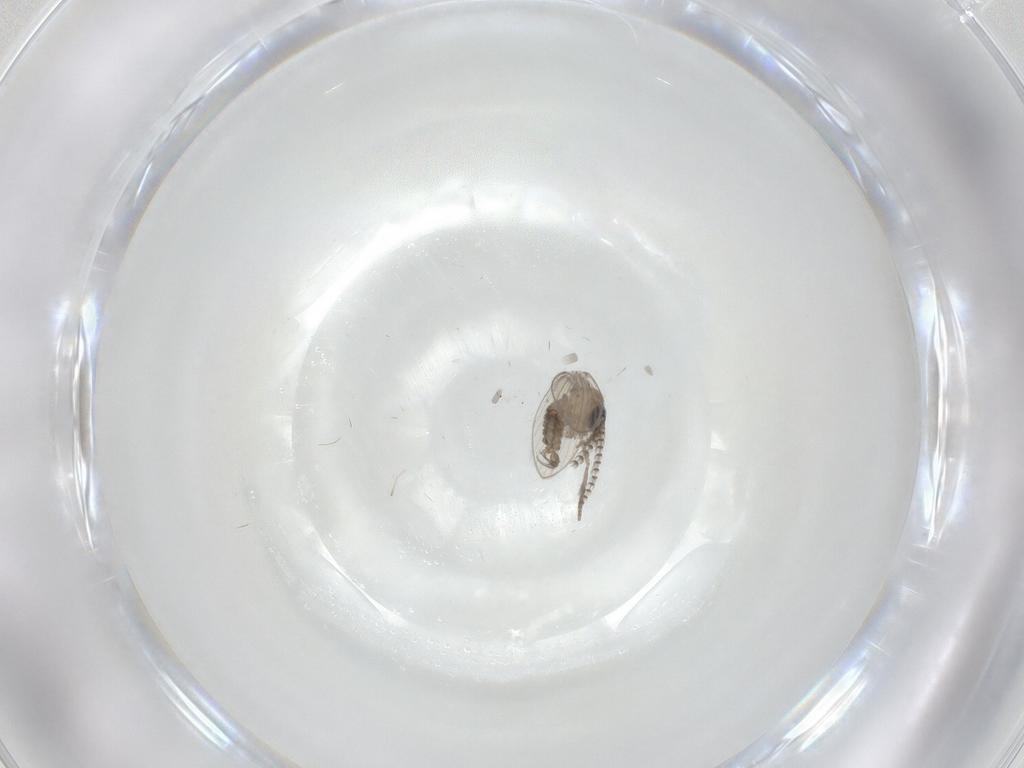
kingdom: Animalia
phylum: Arthropoda
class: Insecta
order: Diptera
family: Psychodidae
